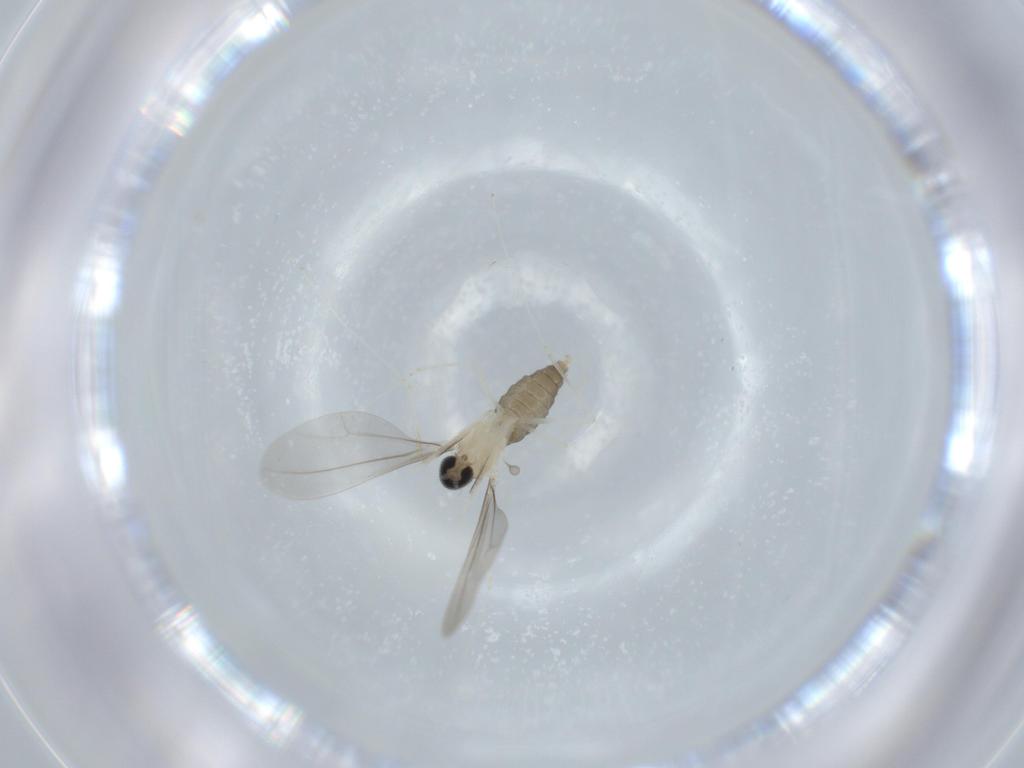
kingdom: Animalia
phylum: Arthropoda
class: Insecta
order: Diptera
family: Cecidomyiidae
